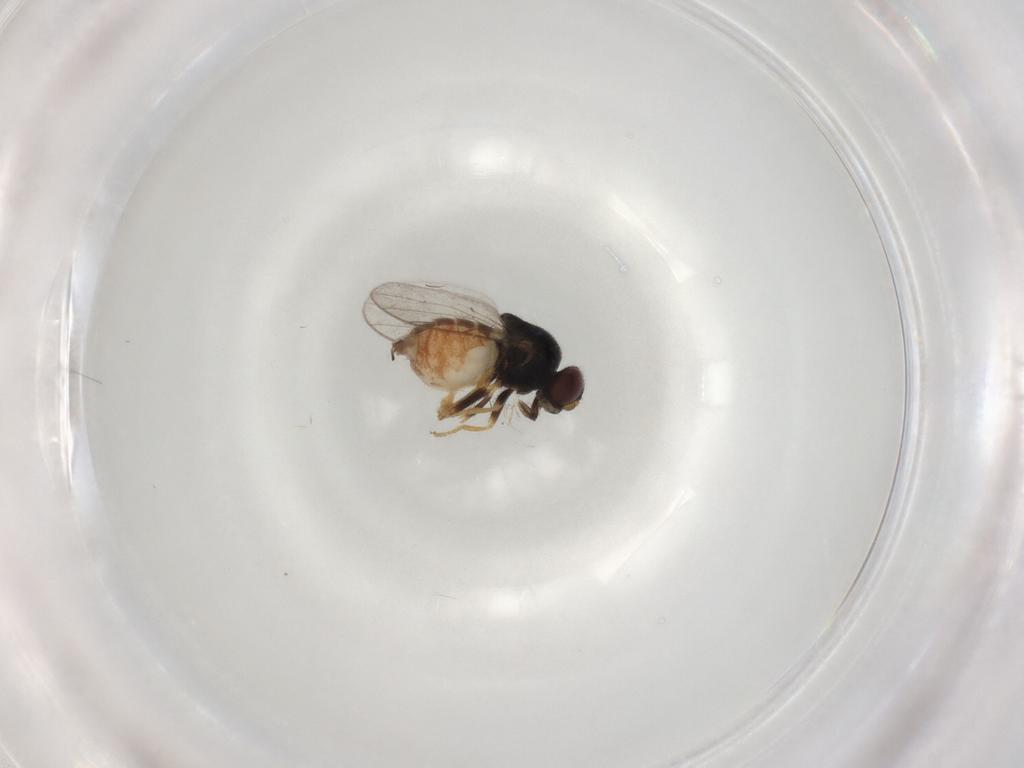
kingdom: Animalia
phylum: Arthropoda
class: Insecta
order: Diptera
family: Chloropidae
